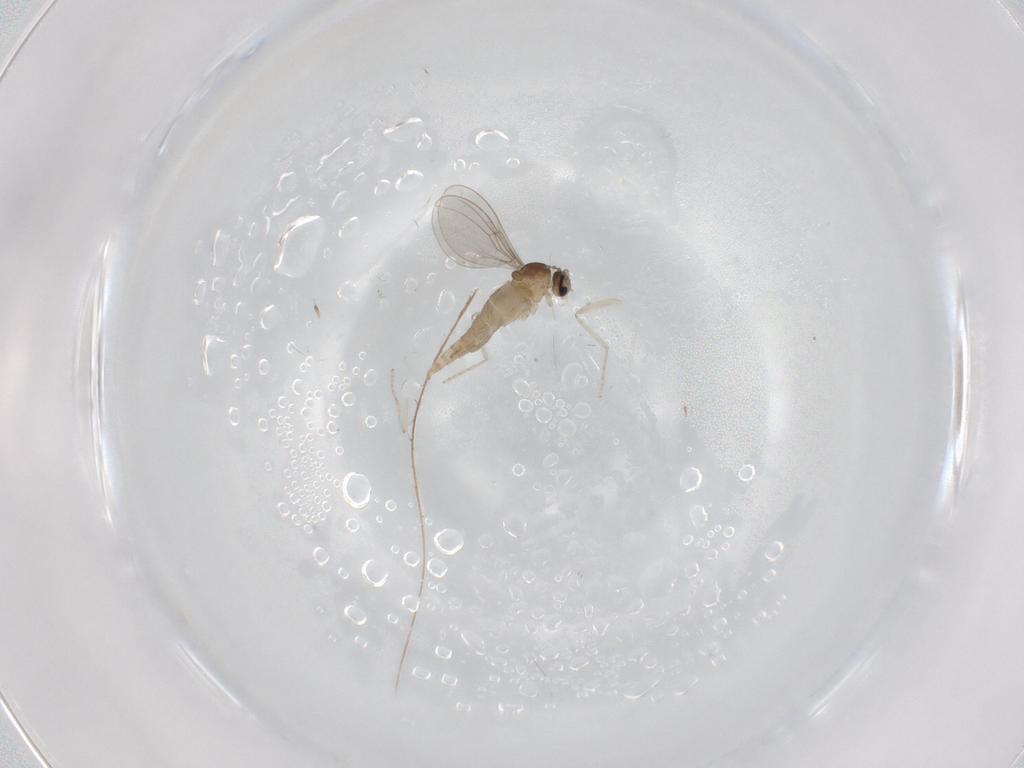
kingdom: Animalia
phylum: Arthropoda
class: Insecta
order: Diptera
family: Cecidomyiidae
